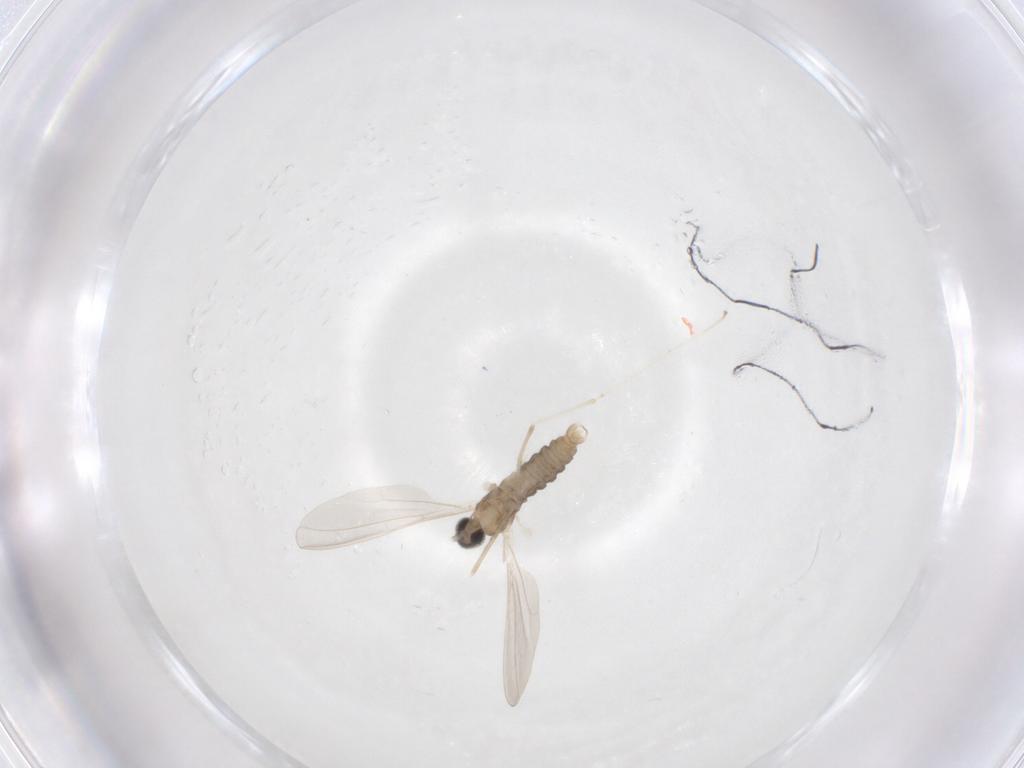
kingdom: Animalia
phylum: Arthropoda
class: Insecta
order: Diptera
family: Cecidomyiidae
